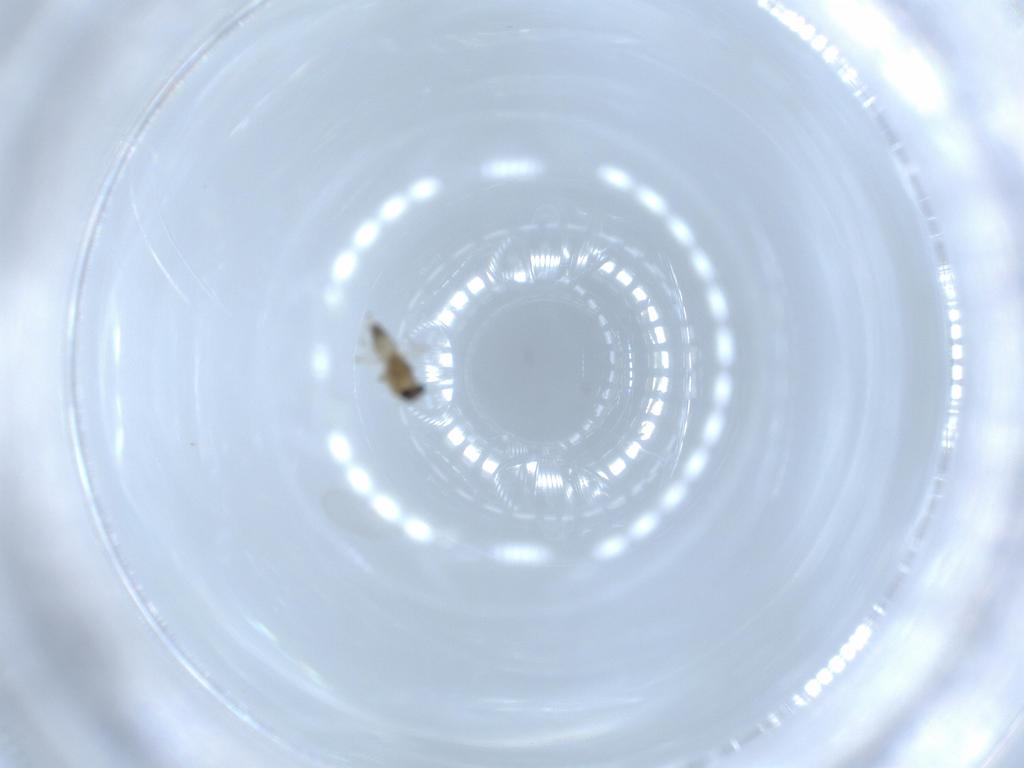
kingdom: Animalia
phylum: Arthropoda
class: Insecta
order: Diptera
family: Chironomidae
